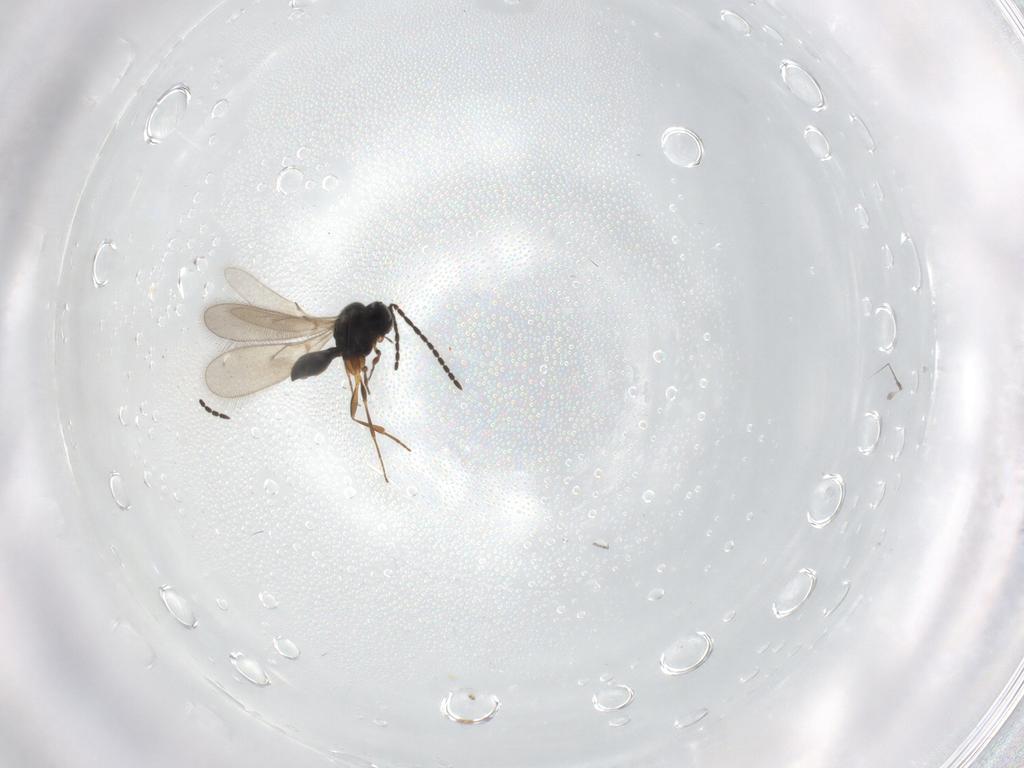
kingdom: Animalia
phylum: Arthropoda
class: Insecta
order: Hymenoptera
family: Scelionidae
